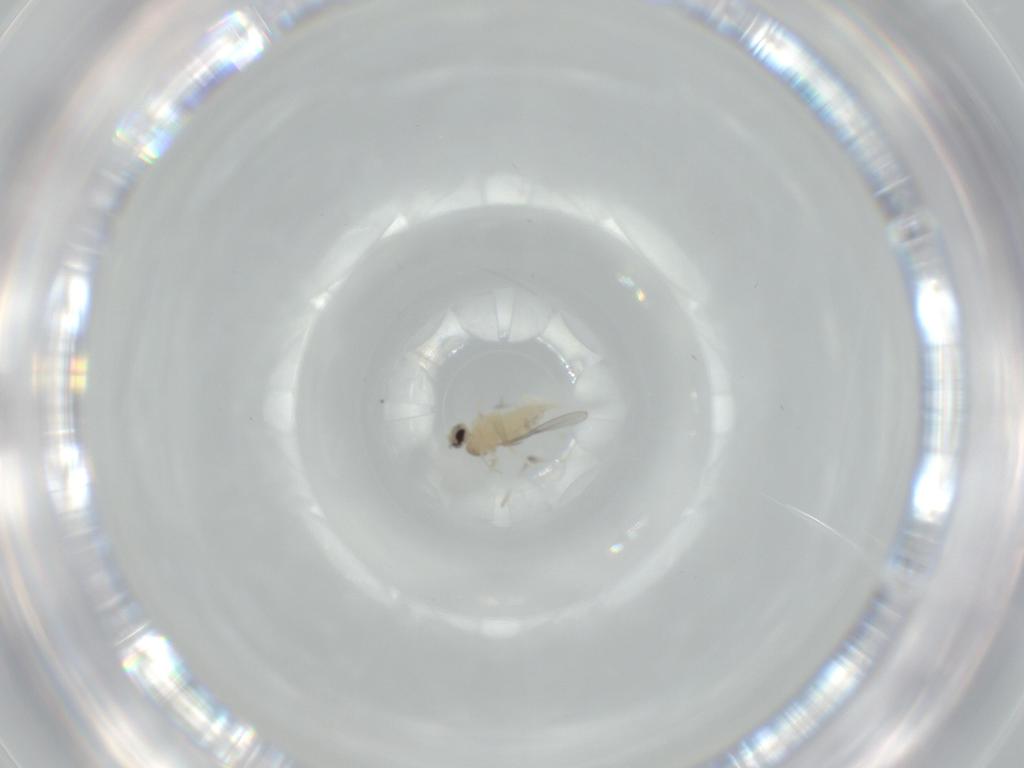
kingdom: Animalia
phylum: Arthropoda
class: Insecta
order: Diptera
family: Cecidomyiidae
